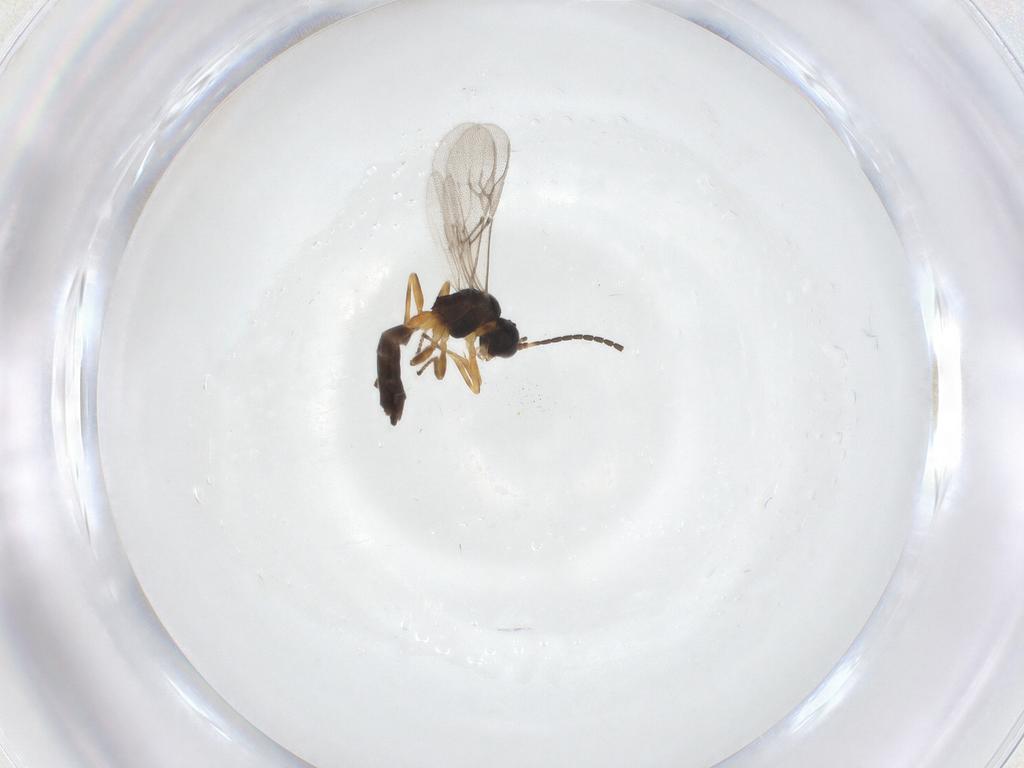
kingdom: Animalia
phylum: Arthropoda
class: Insecta
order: Hymenoptera
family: Braconidae
